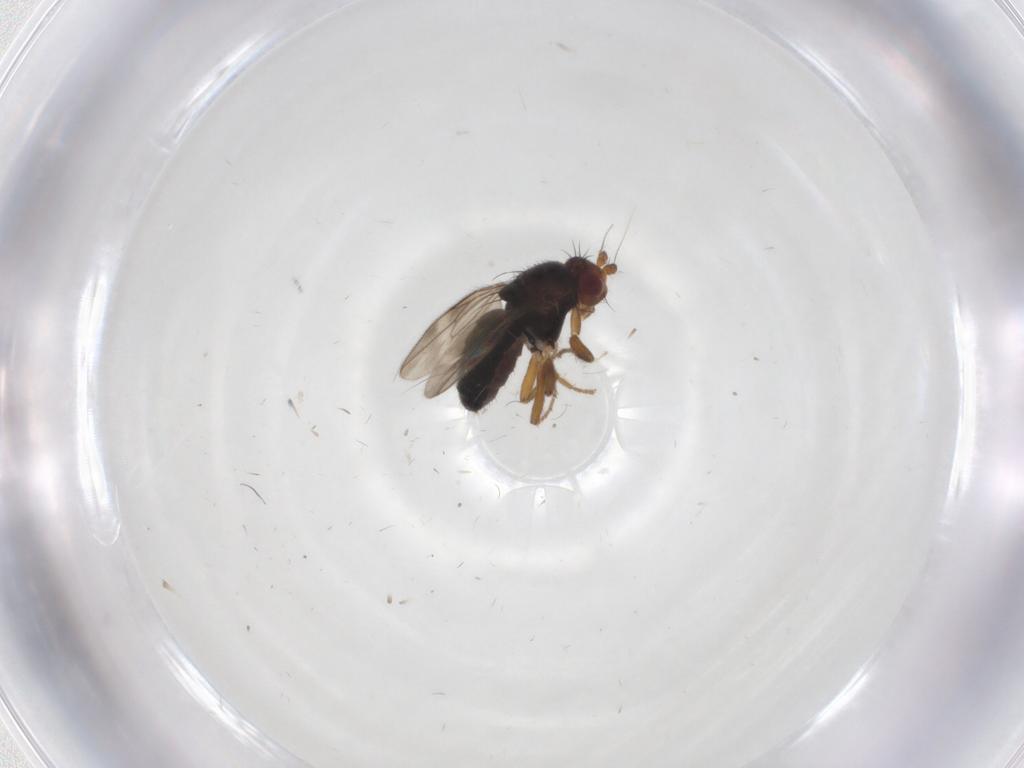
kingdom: Animalia
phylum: Arthropoda
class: Insecta
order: Diptera
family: Sphaeroceridae
